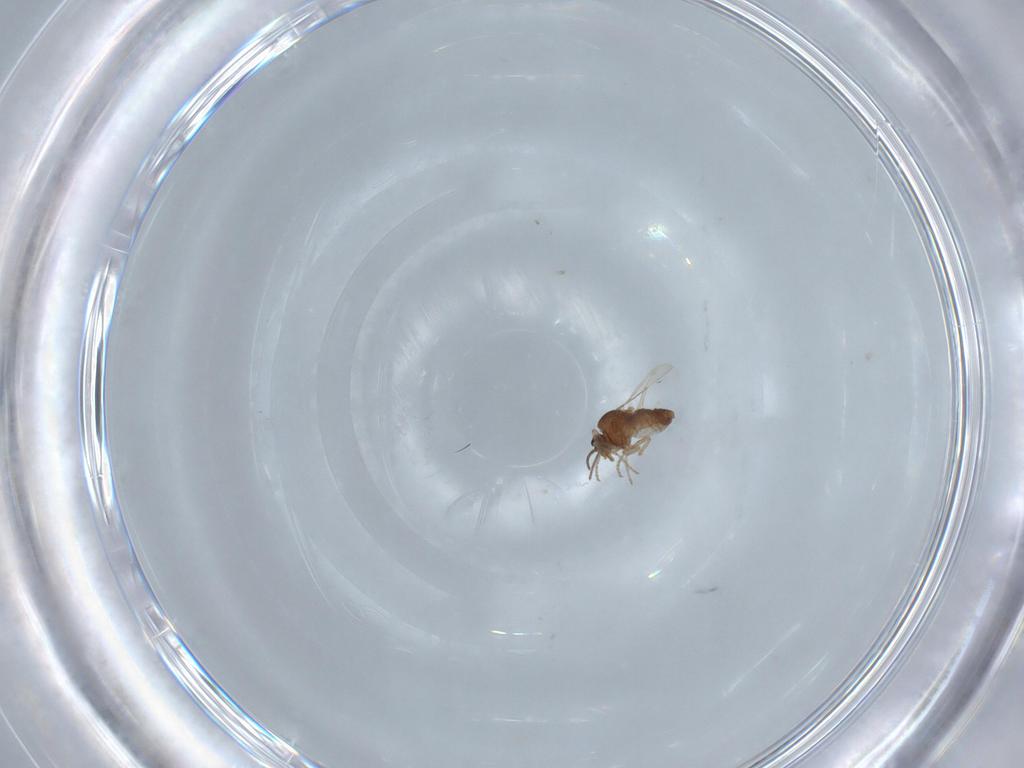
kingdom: Animalia
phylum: Arthropoda
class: Insecta
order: Diptera
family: Ceratopogonidae
